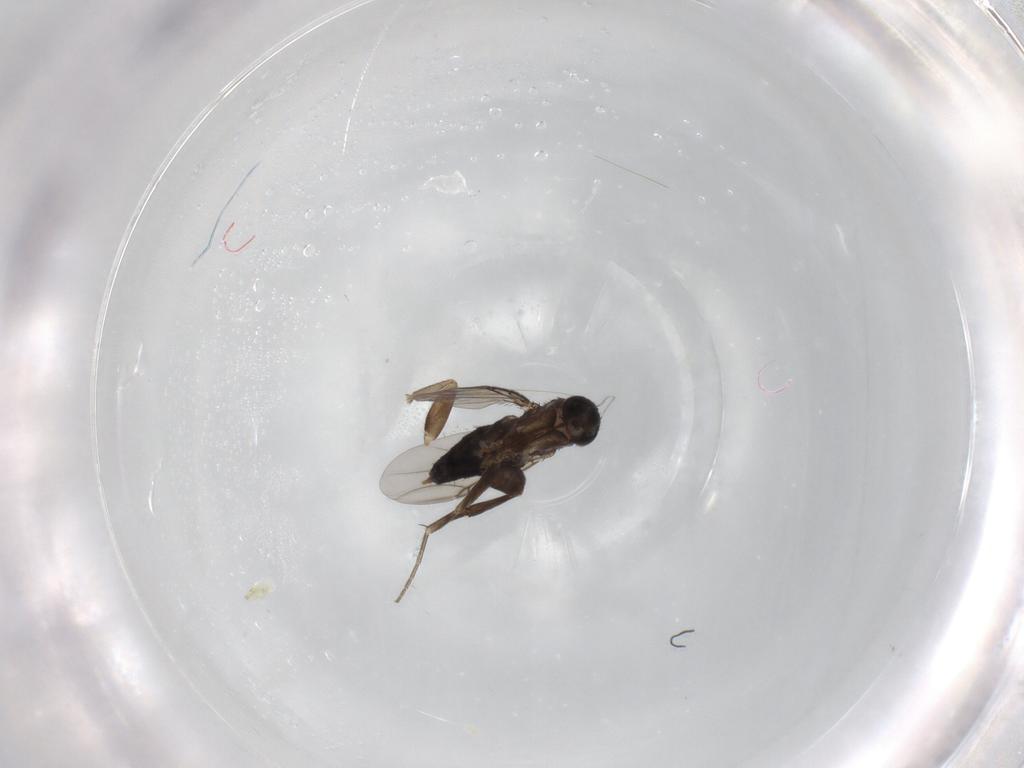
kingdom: Animalia
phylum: Arthropoda
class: Insecta
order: Diptera
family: Phoridae
